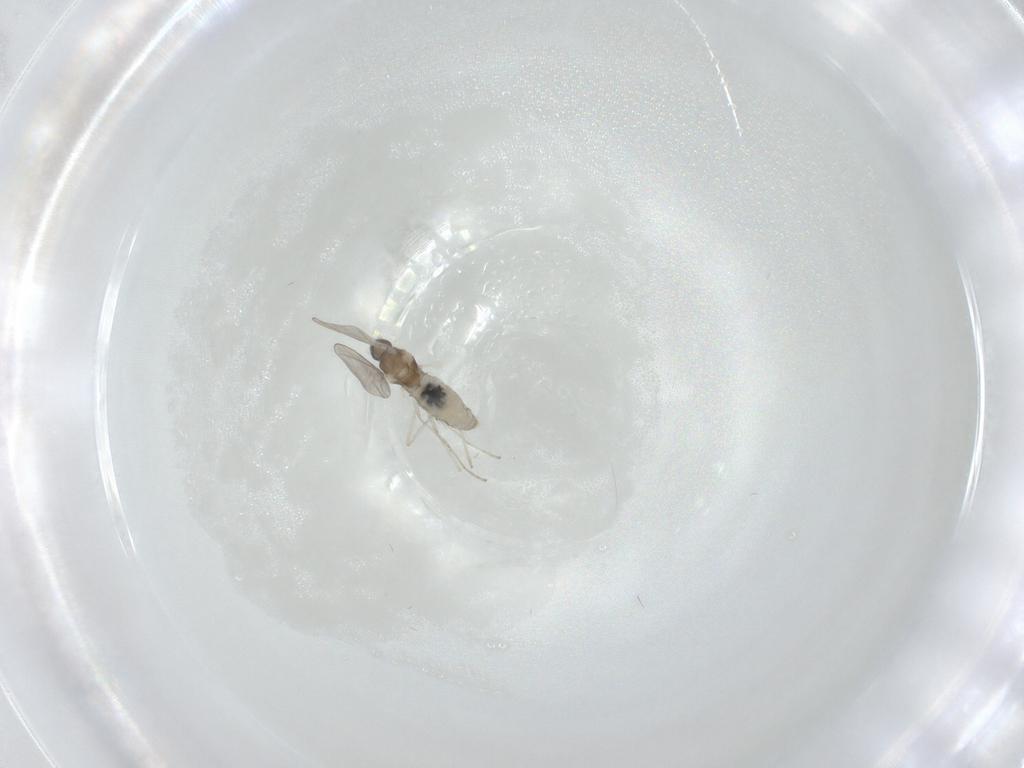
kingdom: Animalia
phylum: Arthropoda
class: Insecta
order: Diptera
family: Cecidomyiidae
